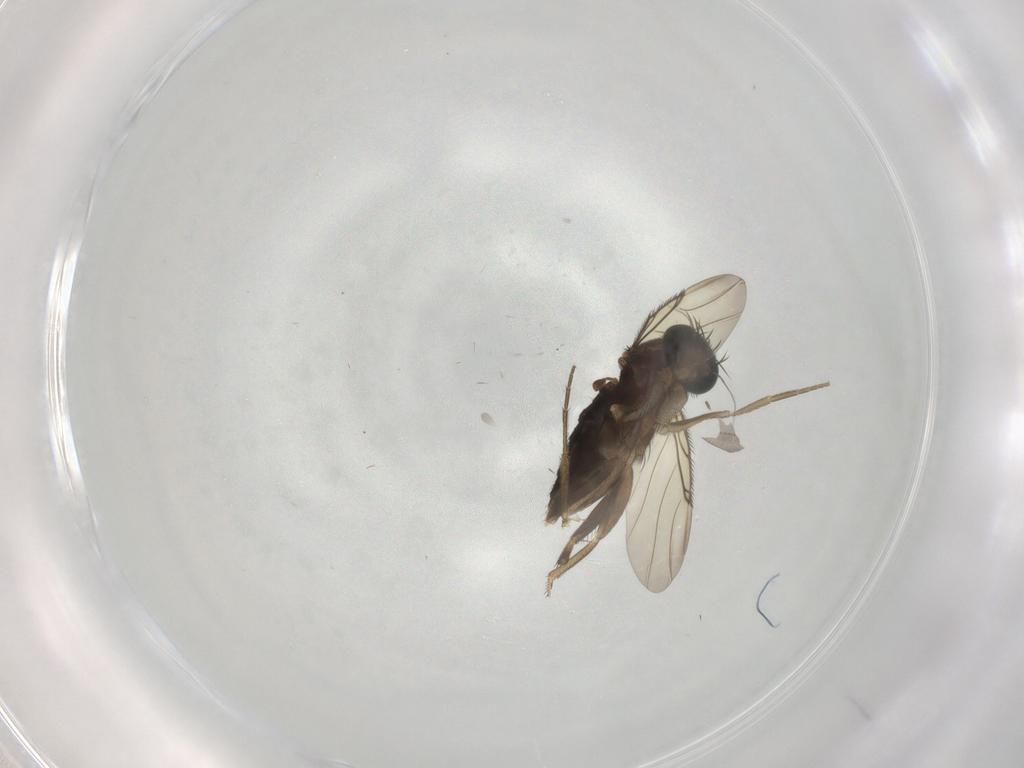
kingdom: Animalia
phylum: Arthropoda
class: Insecta
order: Diptera
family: Phoridae
